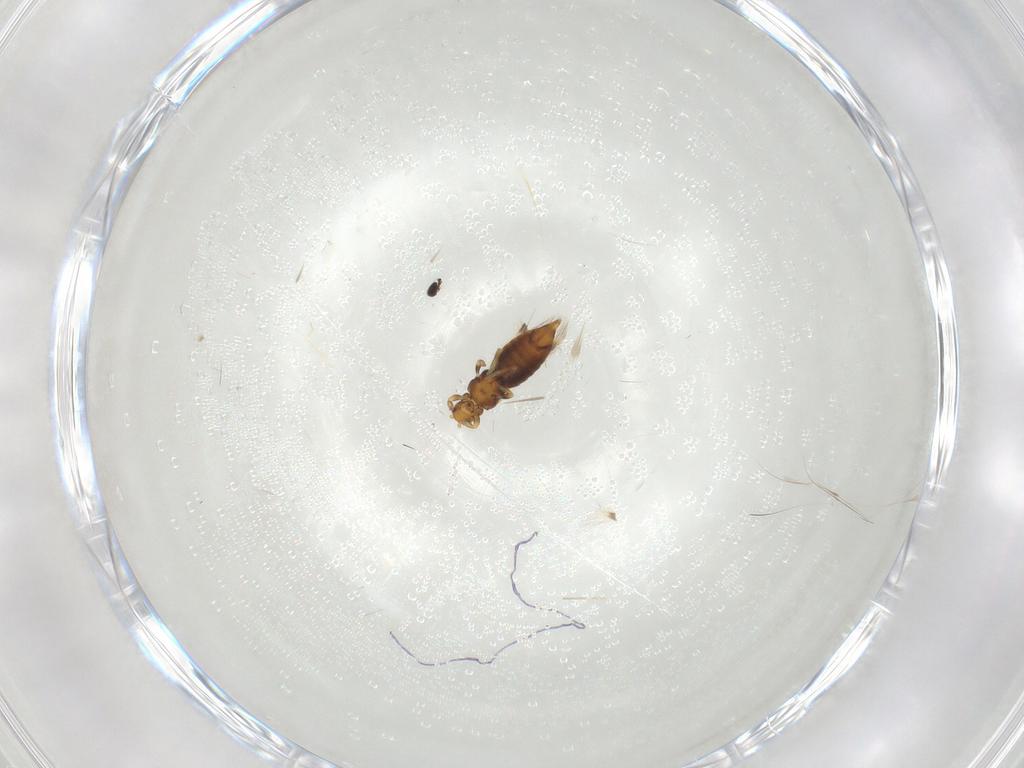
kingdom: Animalia
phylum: Arthropoda
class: Insecta
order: Thysanoptera
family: Thripidae
